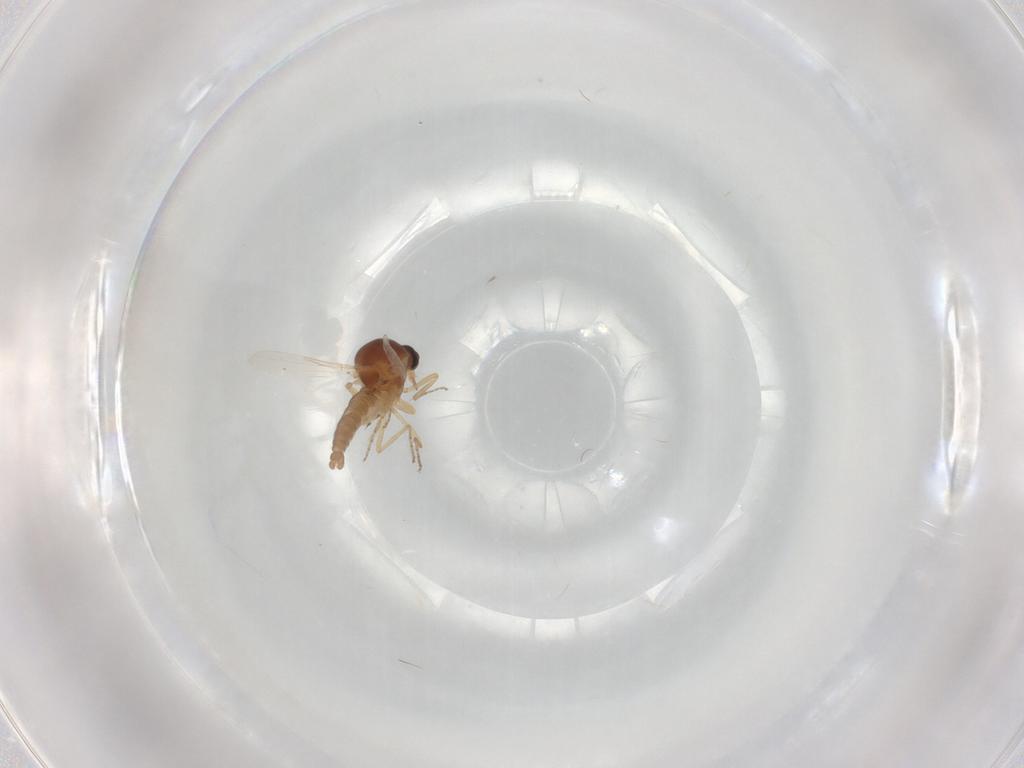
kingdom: Animalia
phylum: Arthropoda
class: Insecta
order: Diptera
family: Ceratopogonidae
